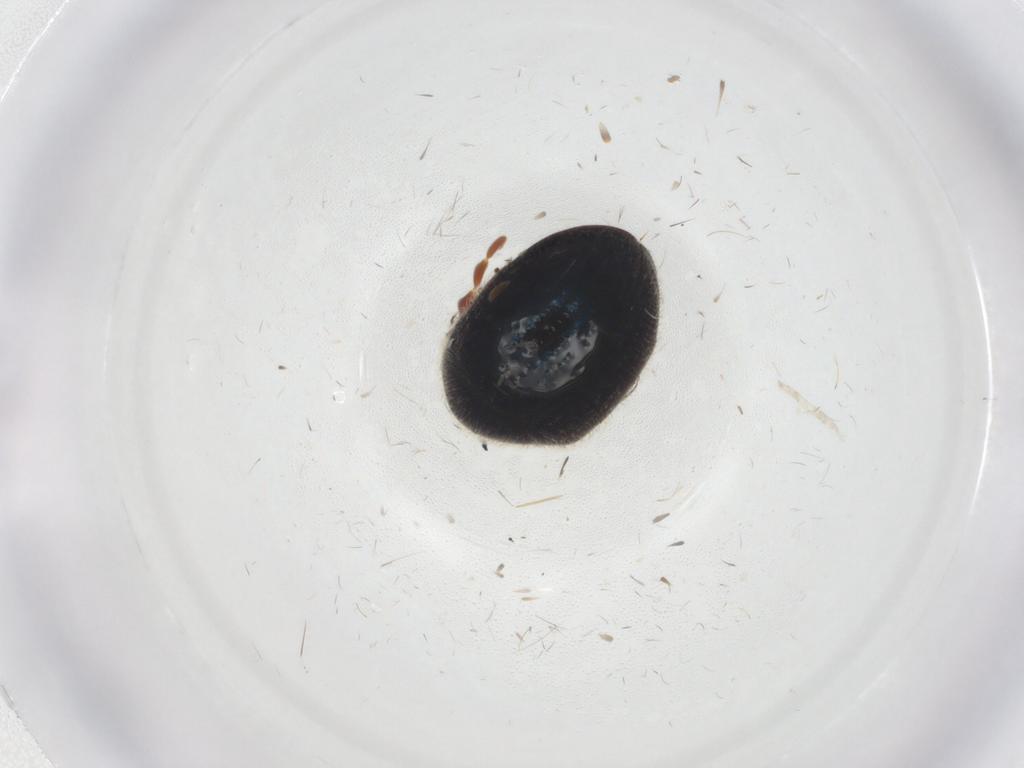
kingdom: Animalia
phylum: Arthropoda
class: Insecta
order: Coleoptera
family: Ptinidae
